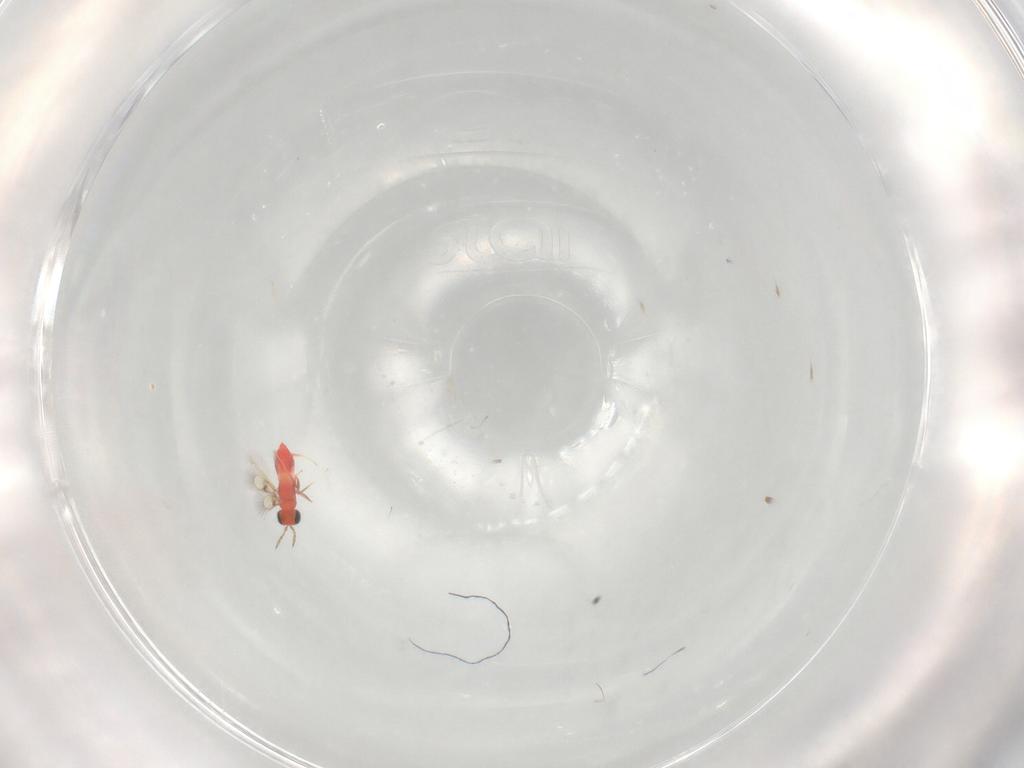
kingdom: Animalia
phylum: Arthropoda
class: Insecta
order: Hymenoptera
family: Trichogrammatidae
